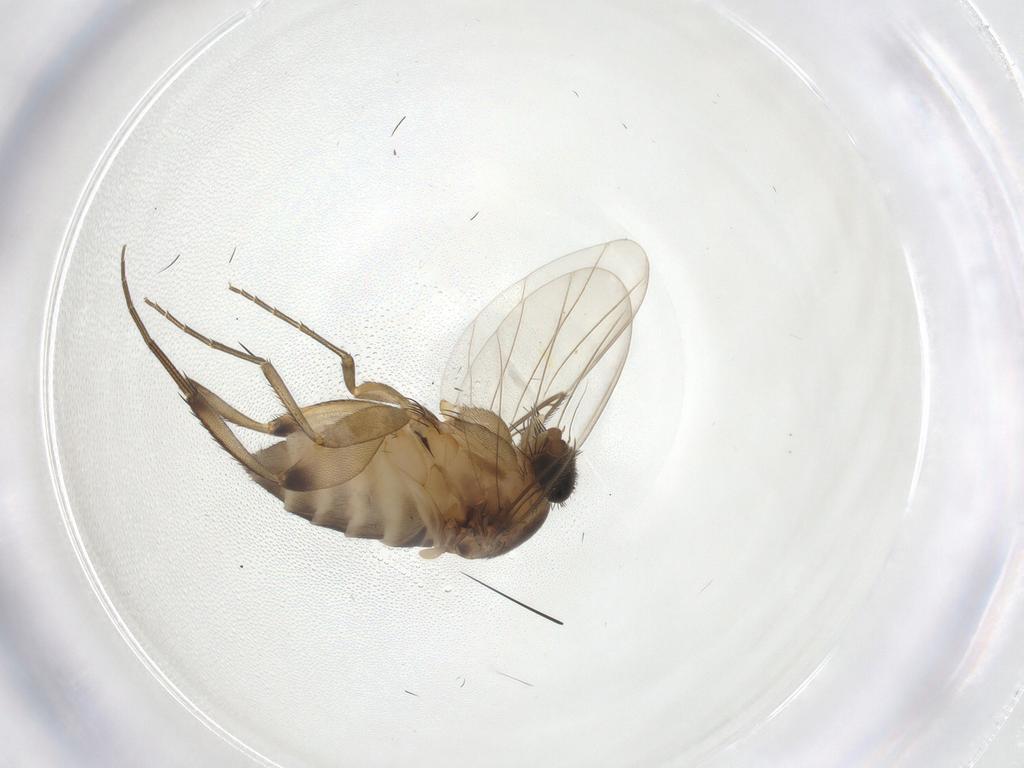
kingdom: Animalia
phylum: Arthropoda
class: Insecta
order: Diptera
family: Phoridae
